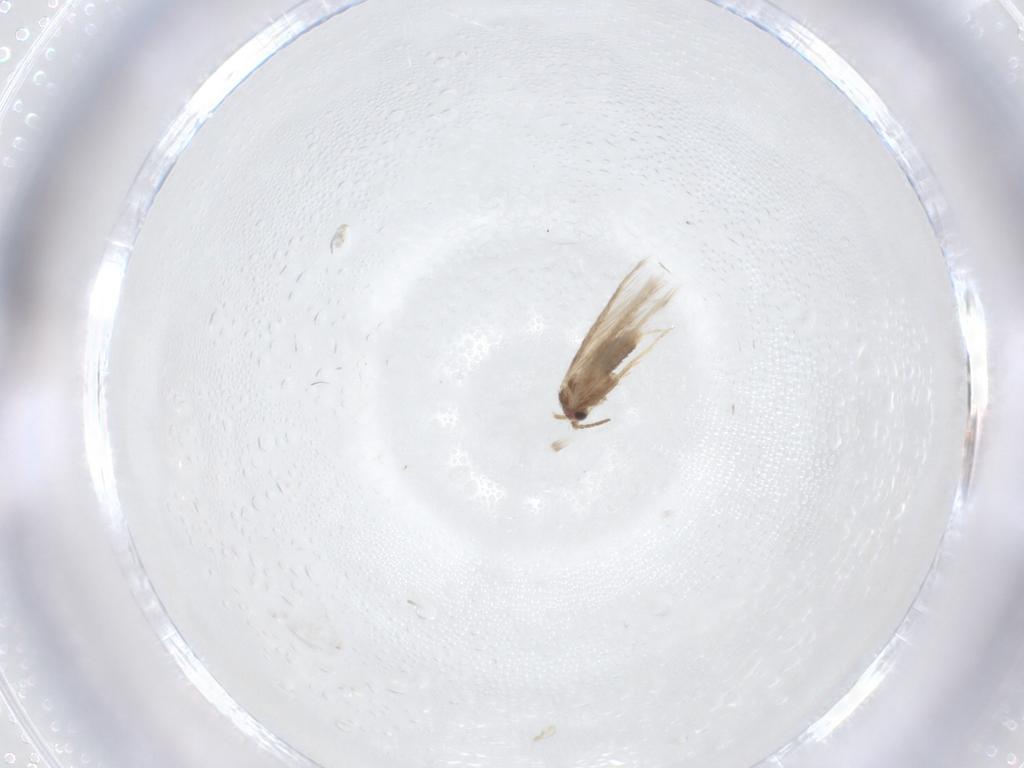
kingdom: Animalia
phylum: Arthropoda
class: Insecta
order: Lepidoptera
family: Nepticulidae
